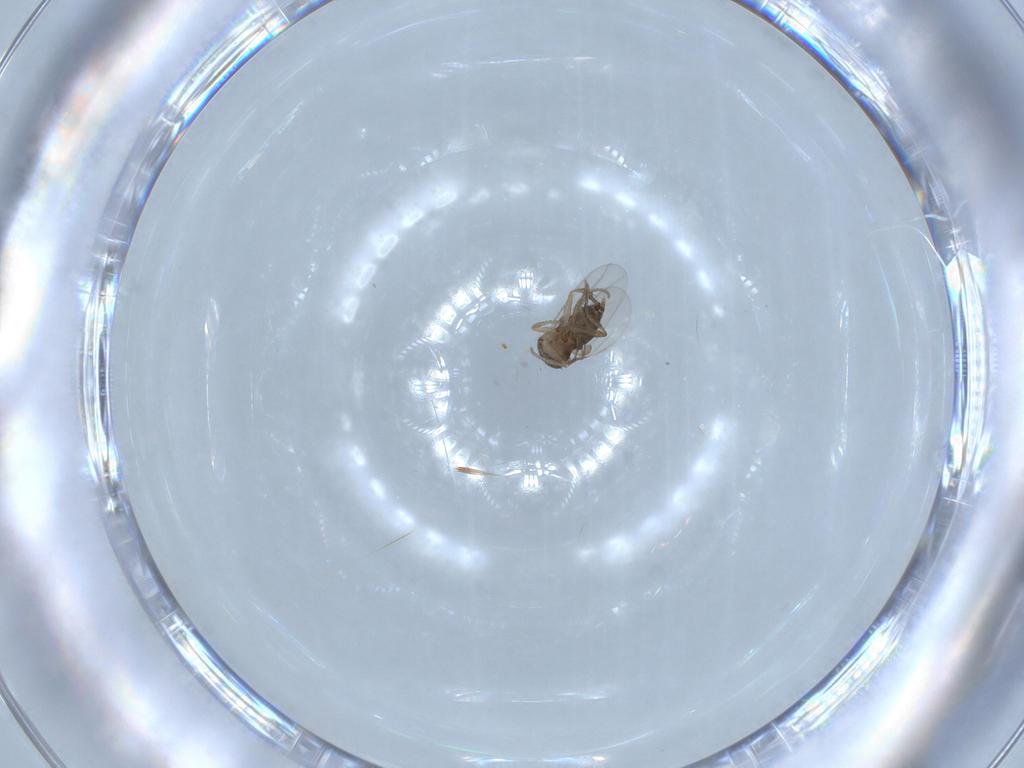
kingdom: Animalia
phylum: Arthropoda
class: Insecta
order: Diptera
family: Phoridae
